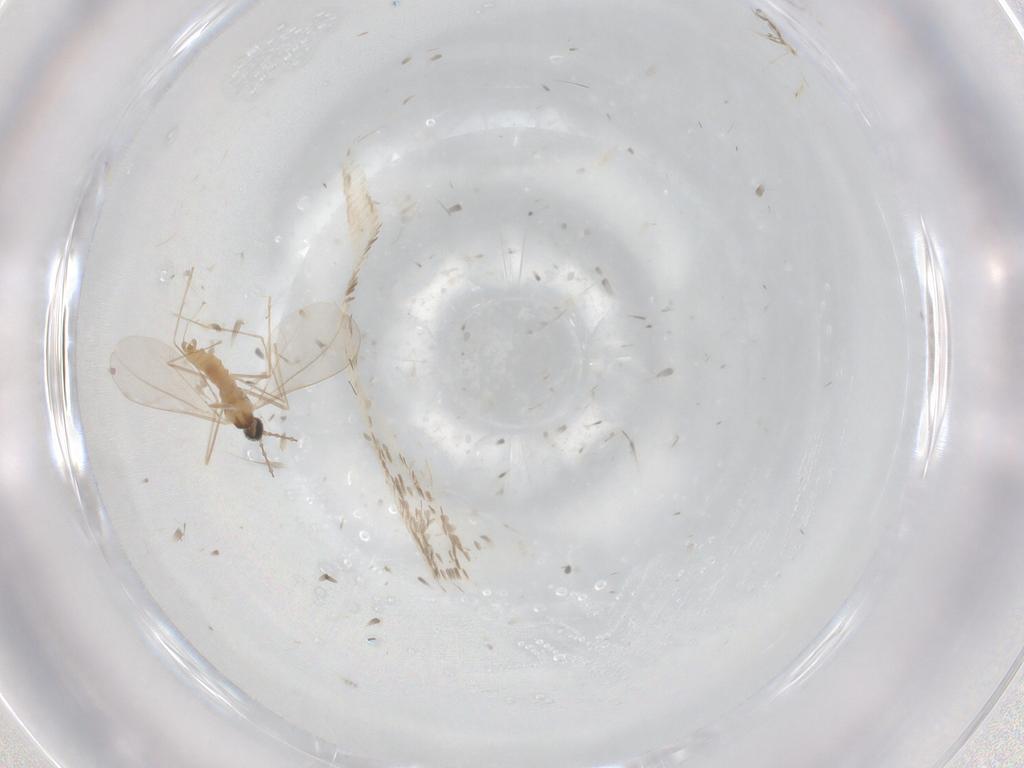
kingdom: Animalia
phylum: Arthropoda
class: Insecta
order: Diptera
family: Cecidomyiidae
